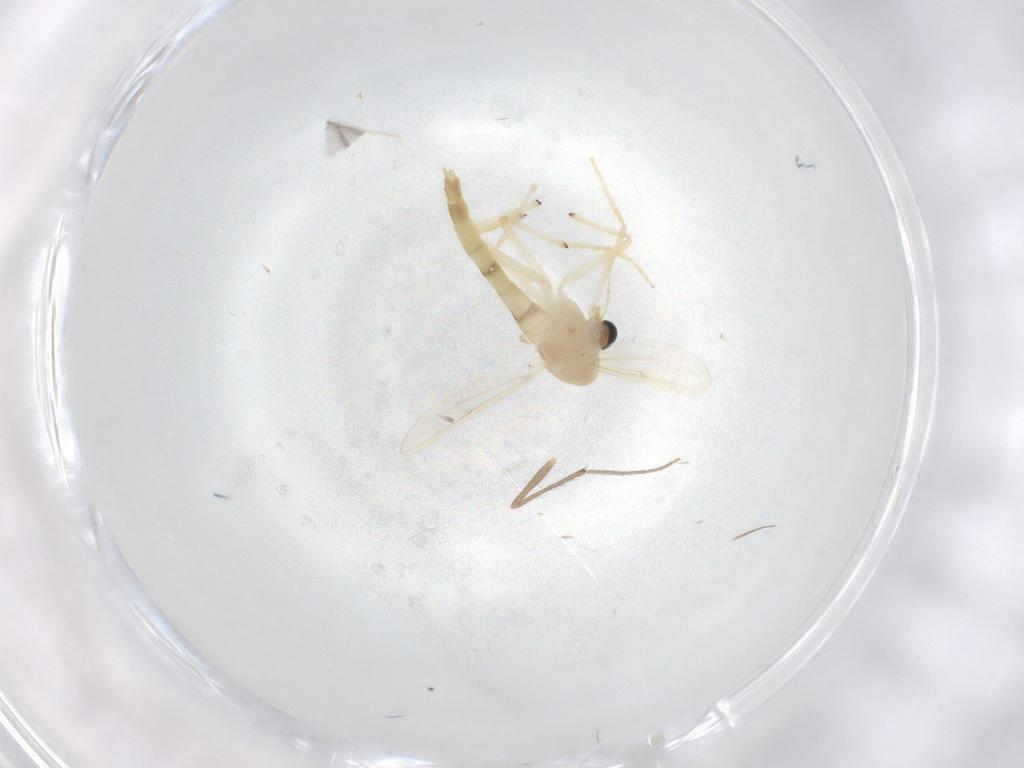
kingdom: Animalia
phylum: Arthropoda
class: Insecta
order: Diptera
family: Chironomidae
